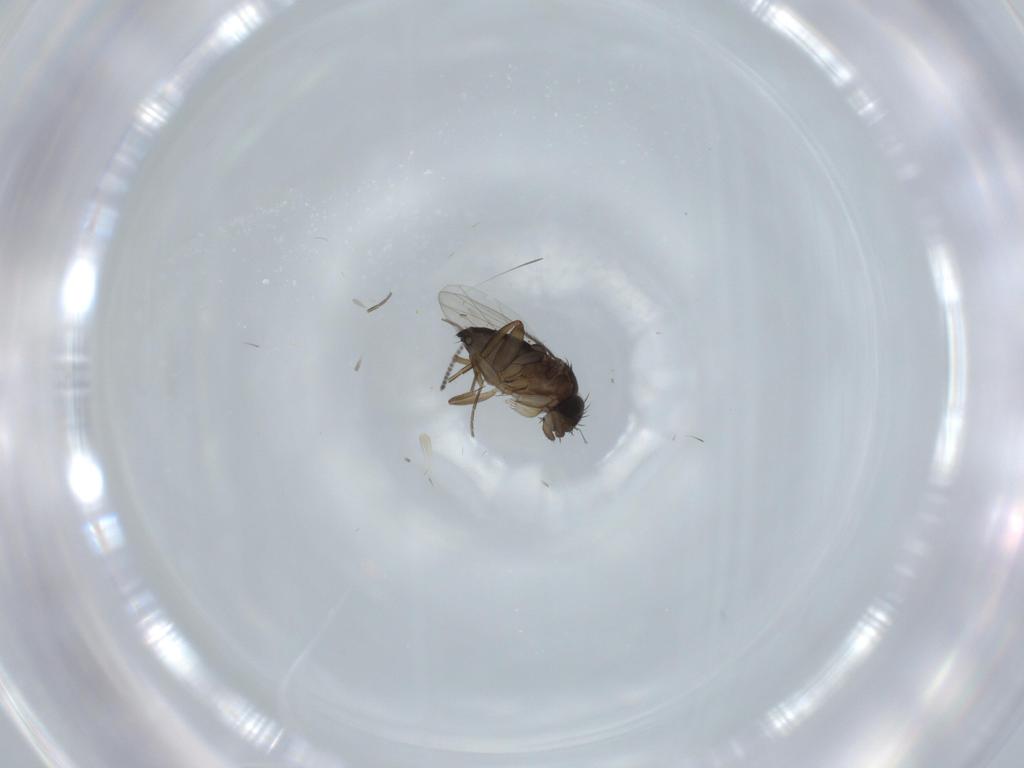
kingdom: Animalia
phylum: Arthropoda
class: Insecta
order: Diptera
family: Phoridae
